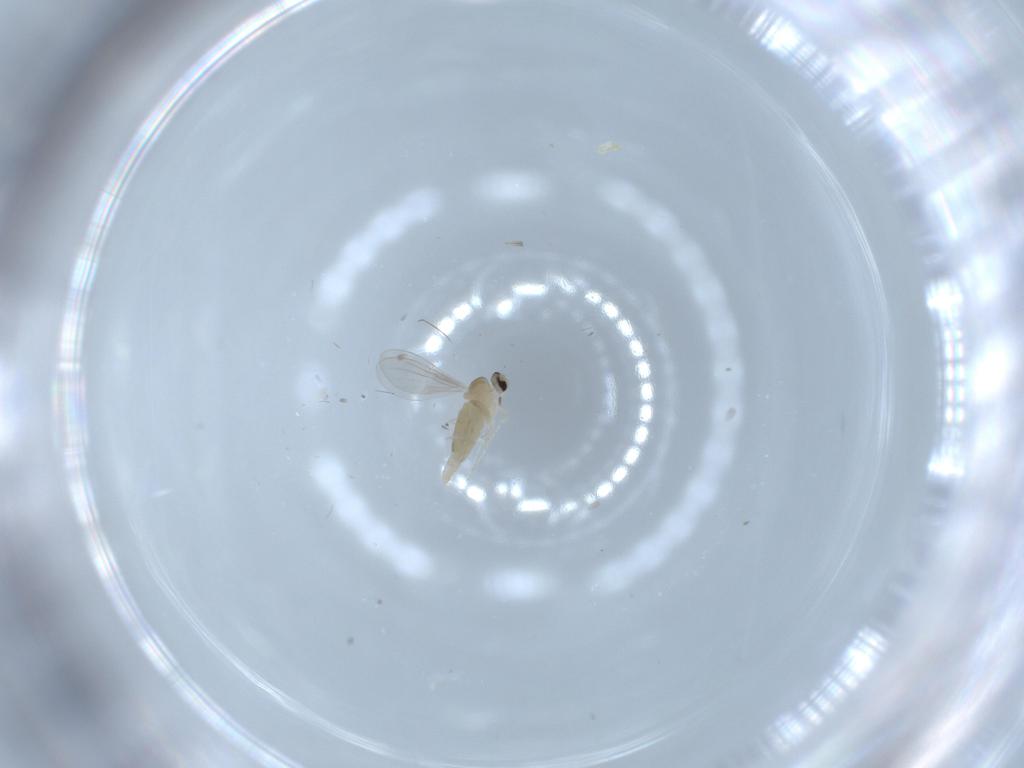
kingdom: Animalia
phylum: Arthropoda
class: Insecta
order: Diptera
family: Cecidomyiidae
